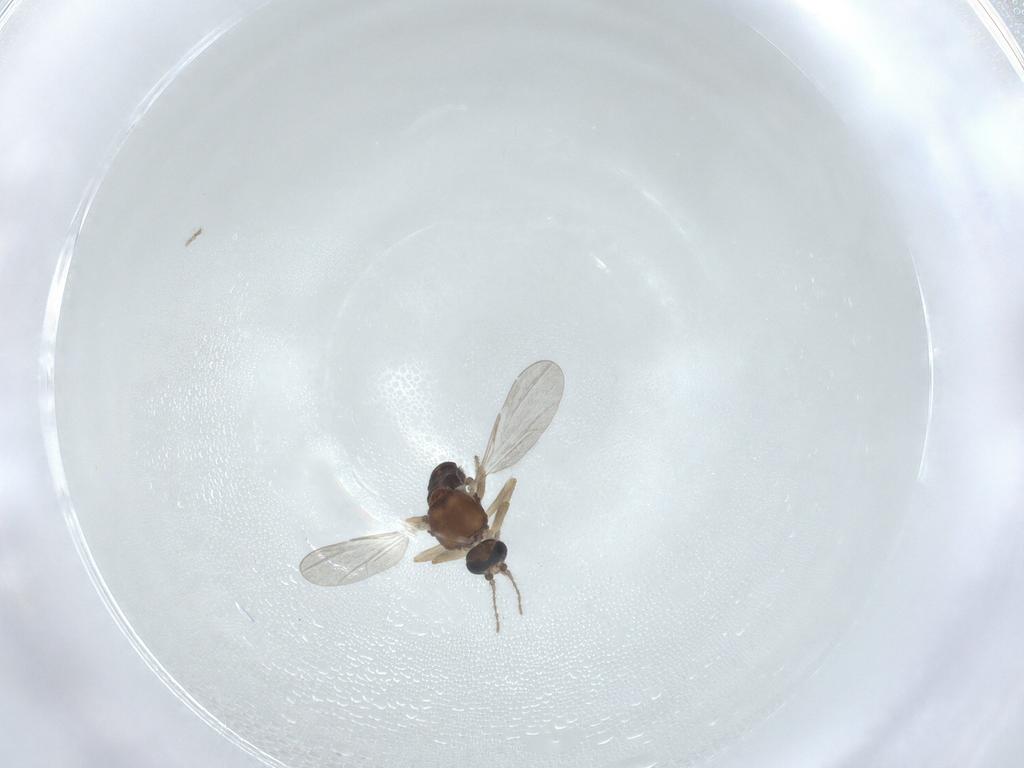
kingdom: Animalia
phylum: Arthropoda
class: Insecta
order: Diptera
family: Ceratopogonidae
